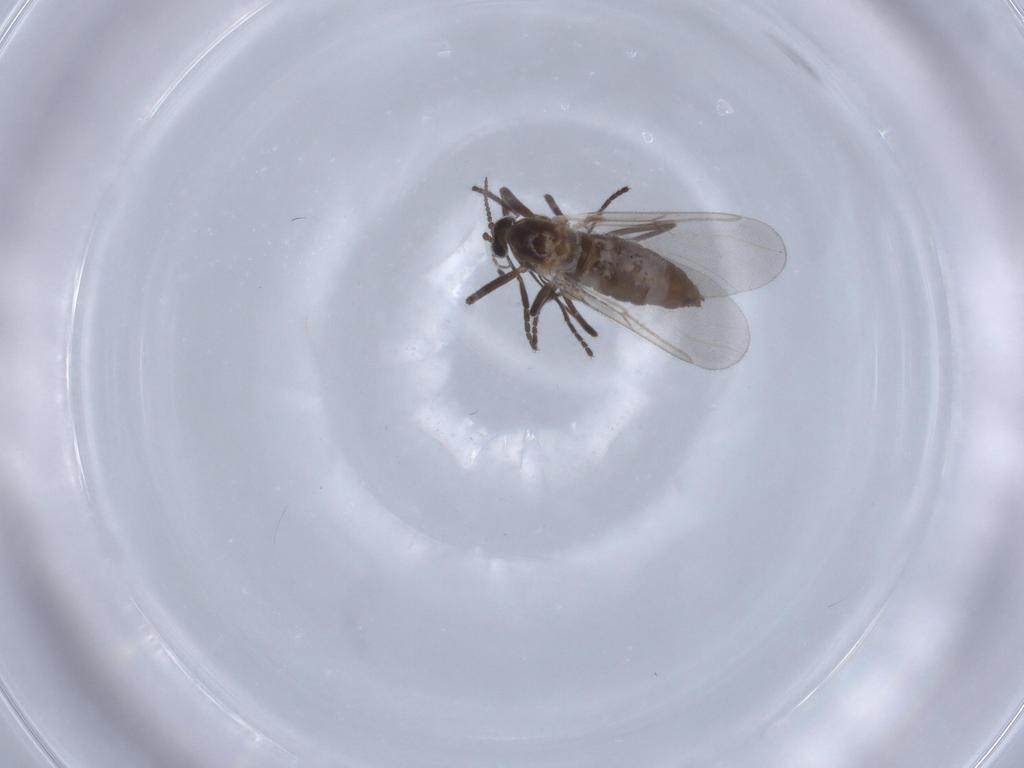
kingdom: Animalia
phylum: Arthropoda
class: Insecta
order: Diptera
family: Cecidomyiidae
